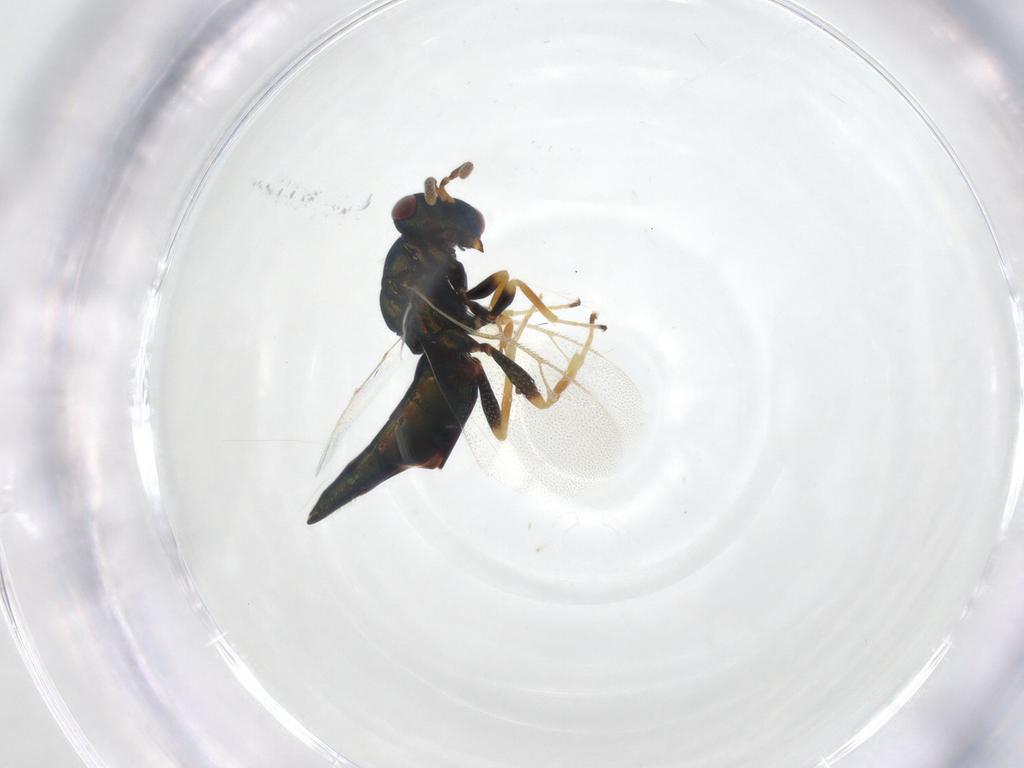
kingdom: Animalia
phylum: Arthropoda
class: Insecta
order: Hymenoptera
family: Pteromalidae
